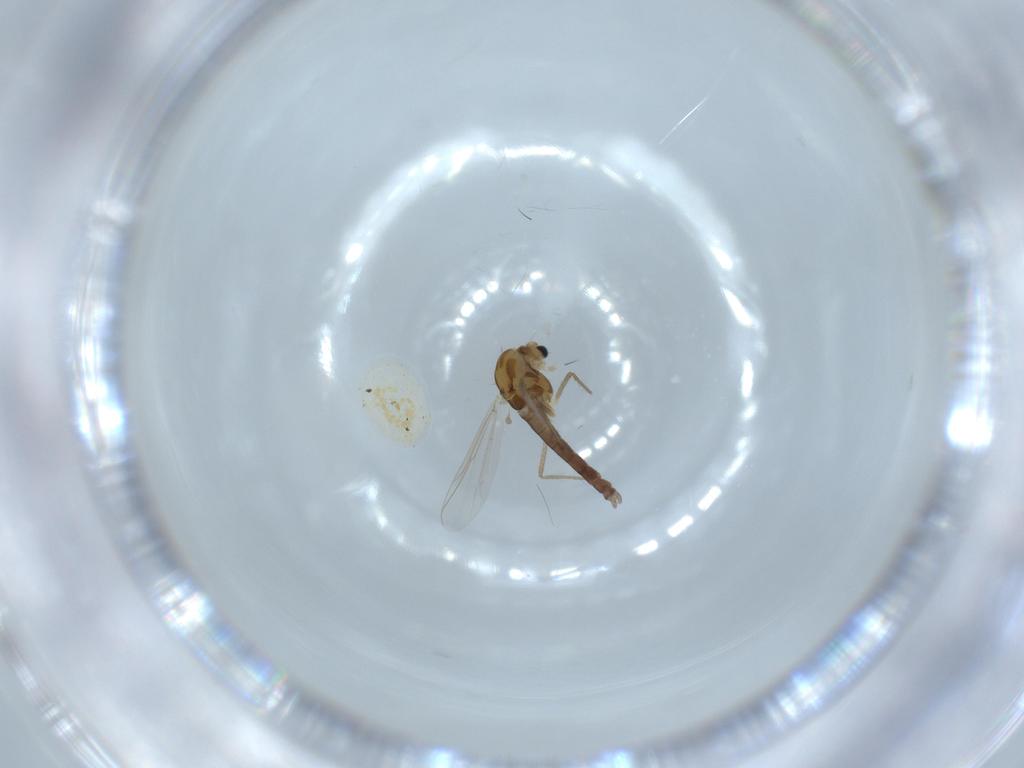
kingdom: Animalia
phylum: Arthropoda
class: Insecta
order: Diptera
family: Chironomidae
